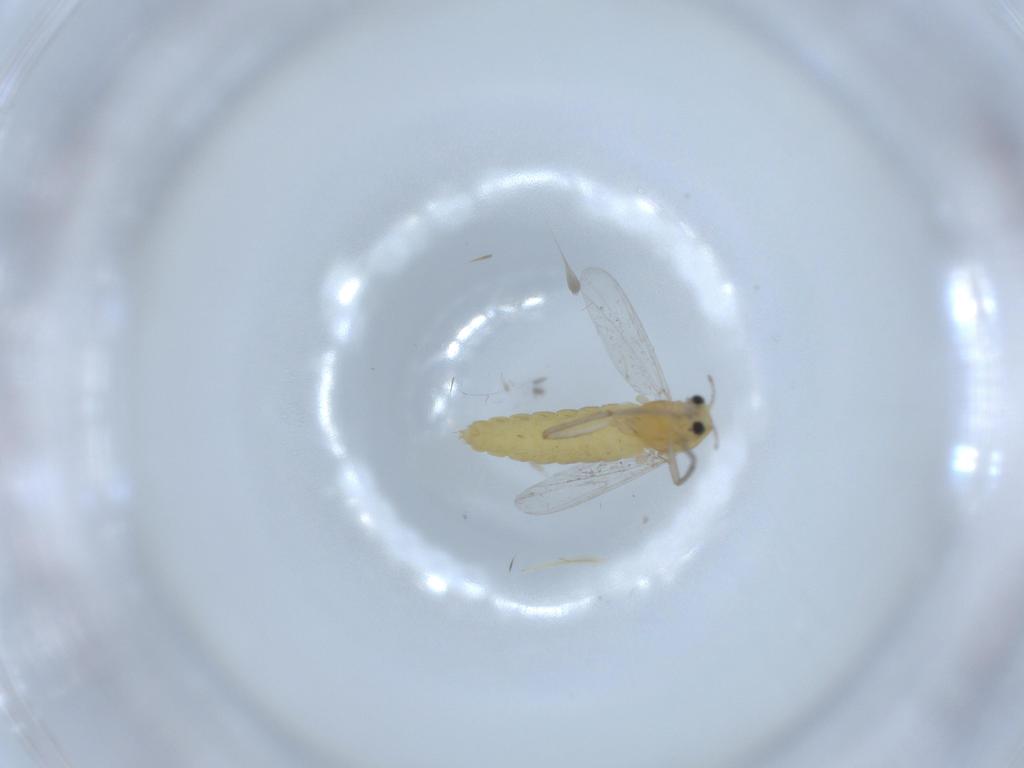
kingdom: Animalia
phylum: Arthropoda
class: Insecta
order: Diptera
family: Chironomidae
